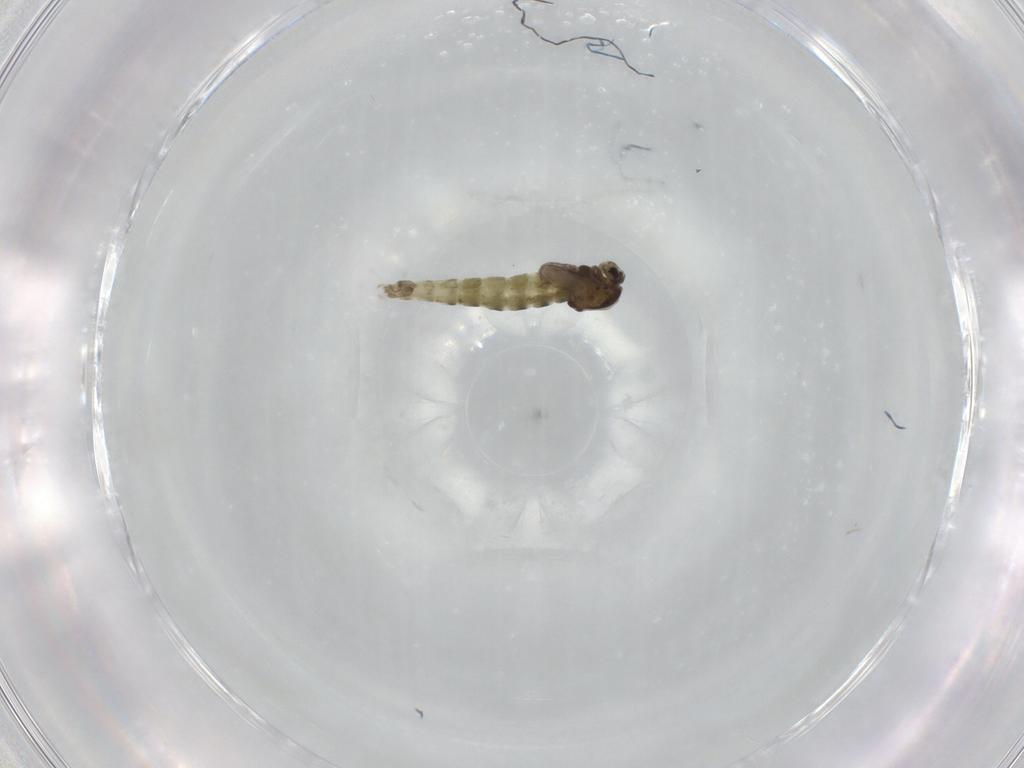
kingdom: Animalia
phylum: Arthropoda
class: Insecta
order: Diptera
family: Chironomidae
